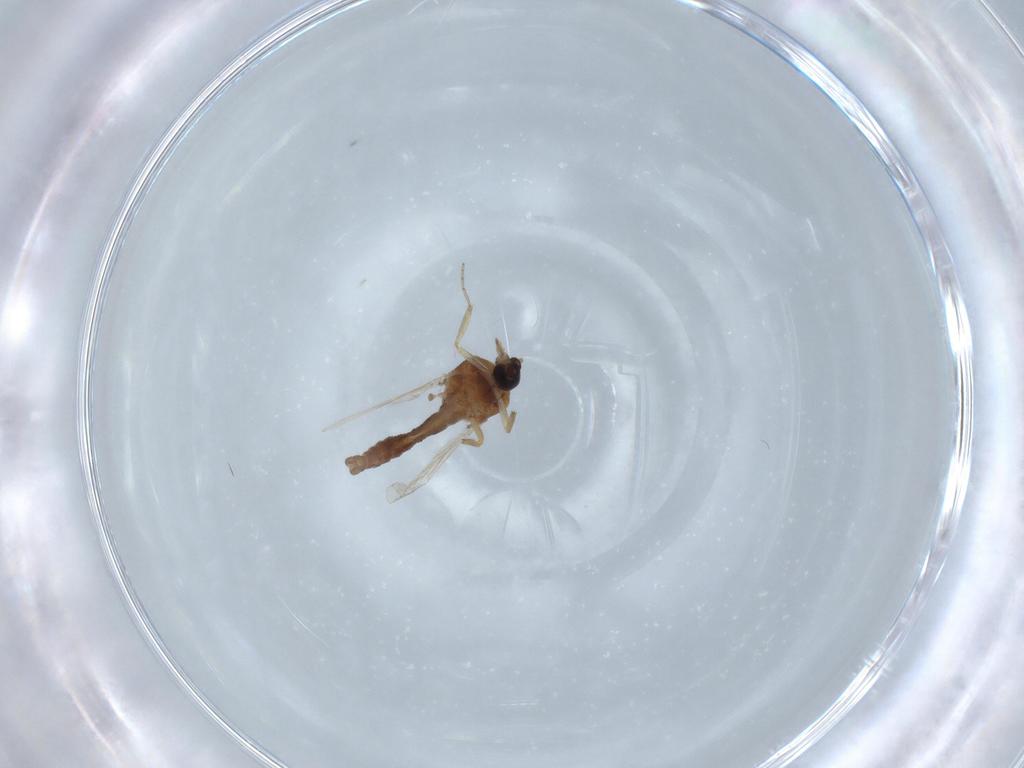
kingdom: Animalia
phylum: Arthropoda
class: Insecta
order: Diptera
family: Ceratopogonidae
